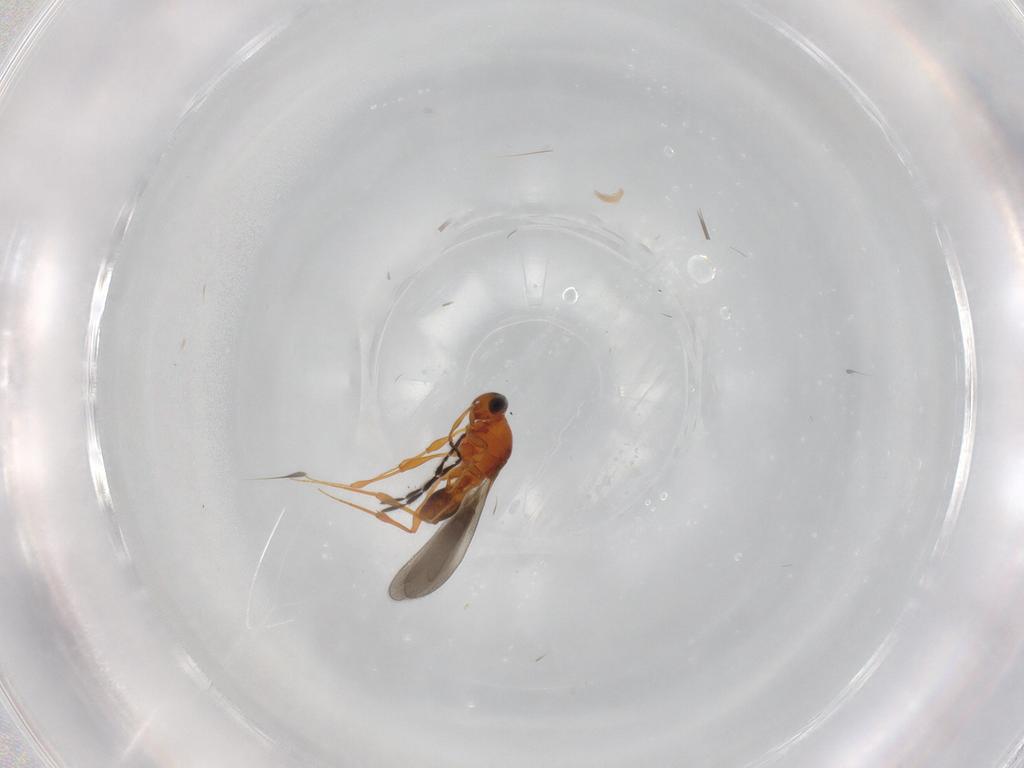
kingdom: Animalia
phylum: Arthropoda
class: Insecta
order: Hymenoptera
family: Platygastridae
